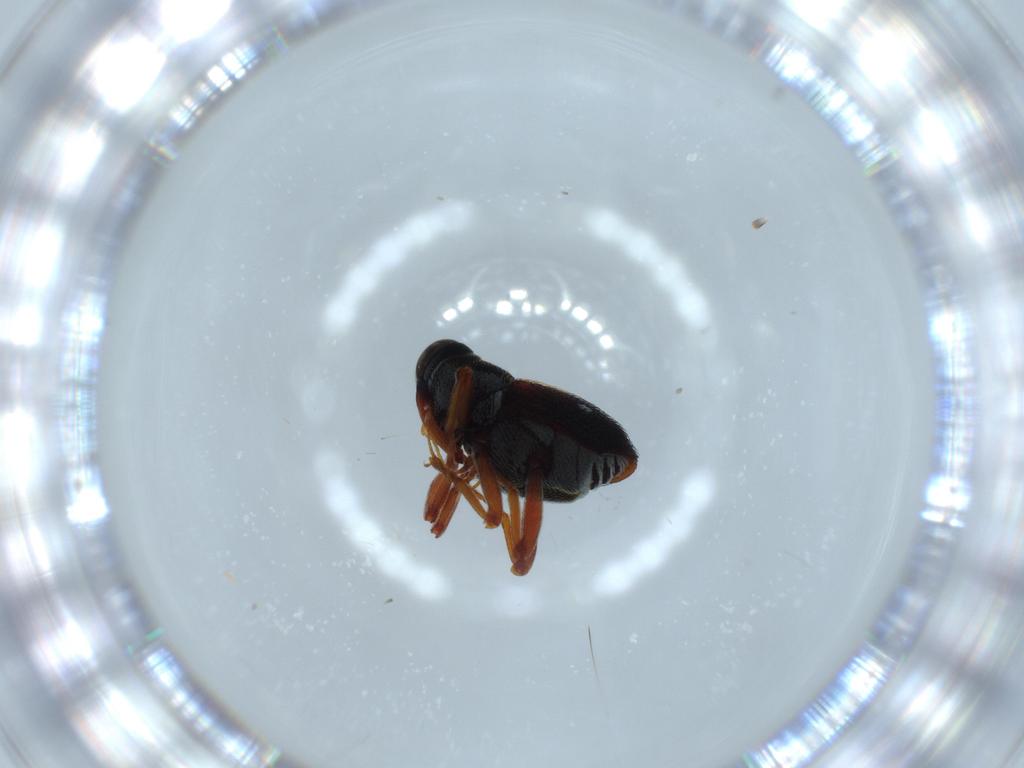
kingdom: Animalia
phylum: Arthropoda
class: Insecta
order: Coleoptera
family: Curculionidae
